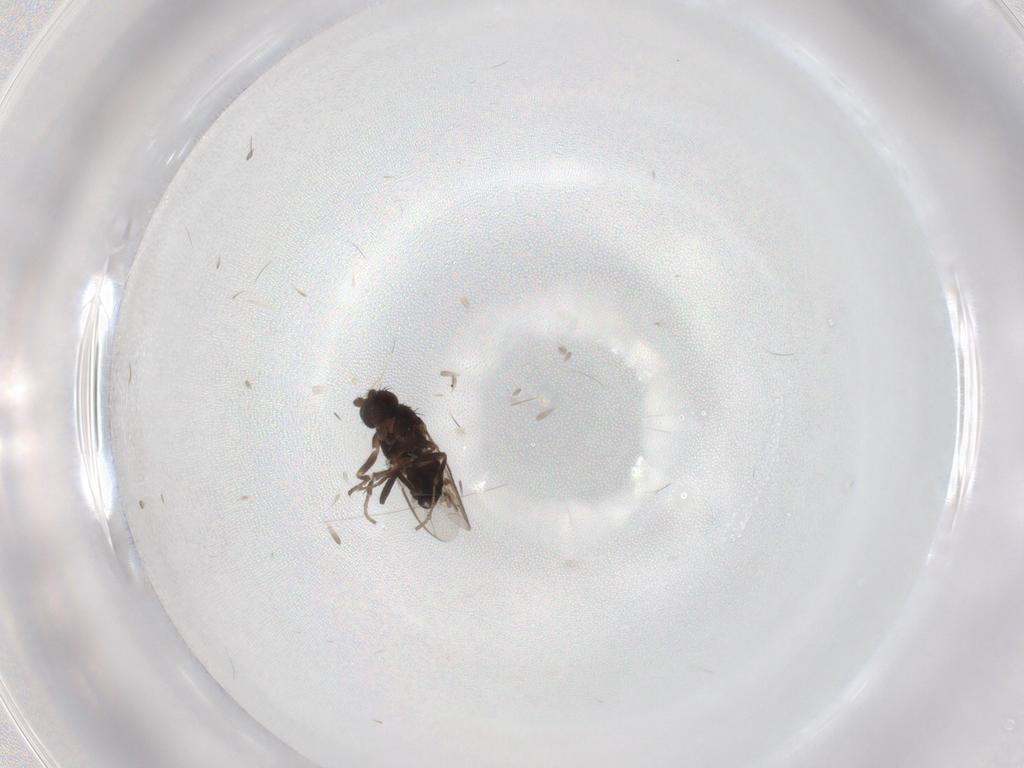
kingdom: Animalia
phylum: Arthropoda
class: Insecta
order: Diptera
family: Sphaeroceridae
